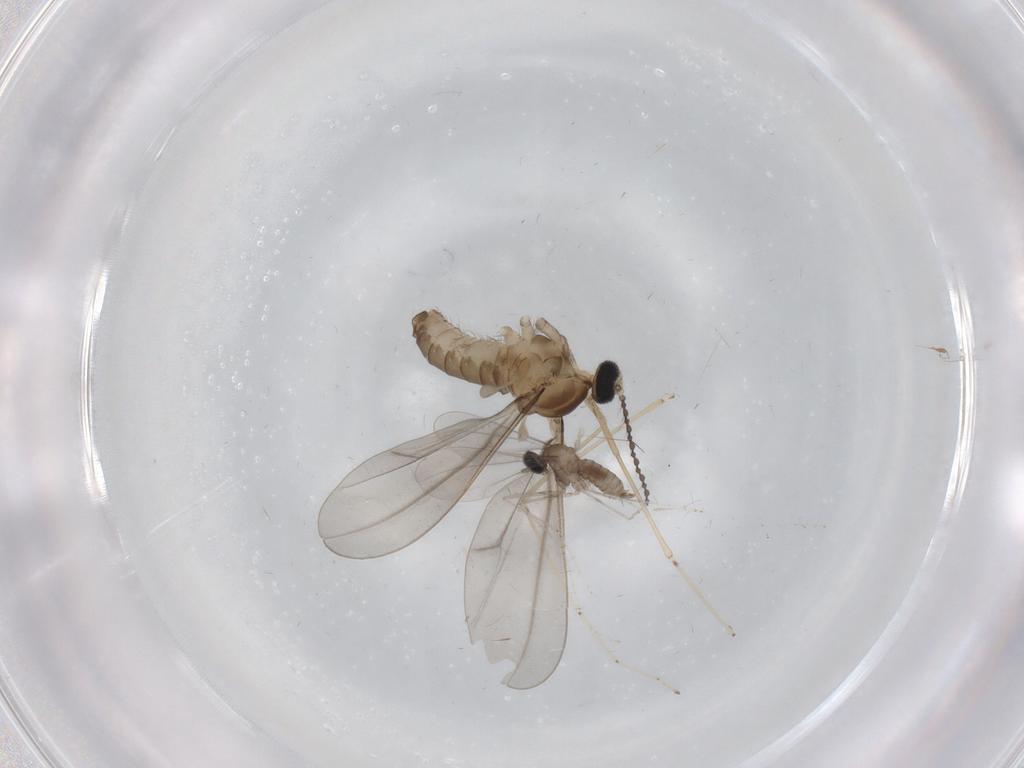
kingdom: Animalia
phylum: Arthropoda
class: Insecta
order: Diptera
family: Cecidomyiidae
